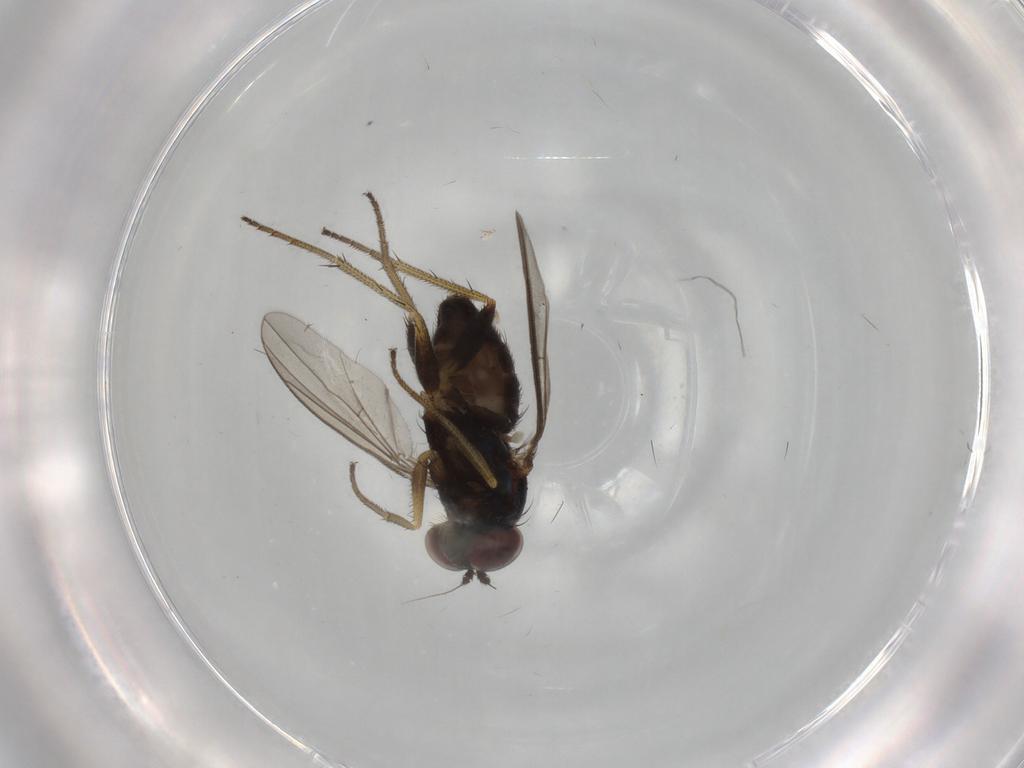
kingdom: Animalia
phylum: Arthropoda
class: Insecta
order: Diptera
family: Dolichopodidae
